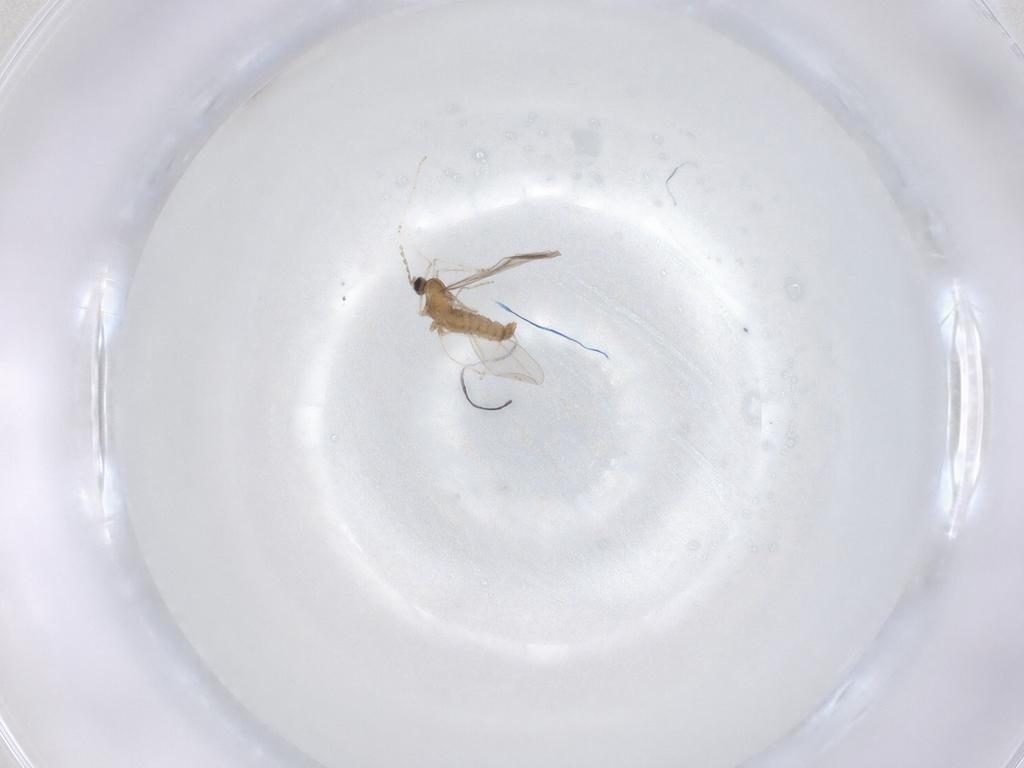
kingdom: Animalia
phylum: Arthropoda
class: Insecta
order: Diptera
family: Cecidomyiidae
